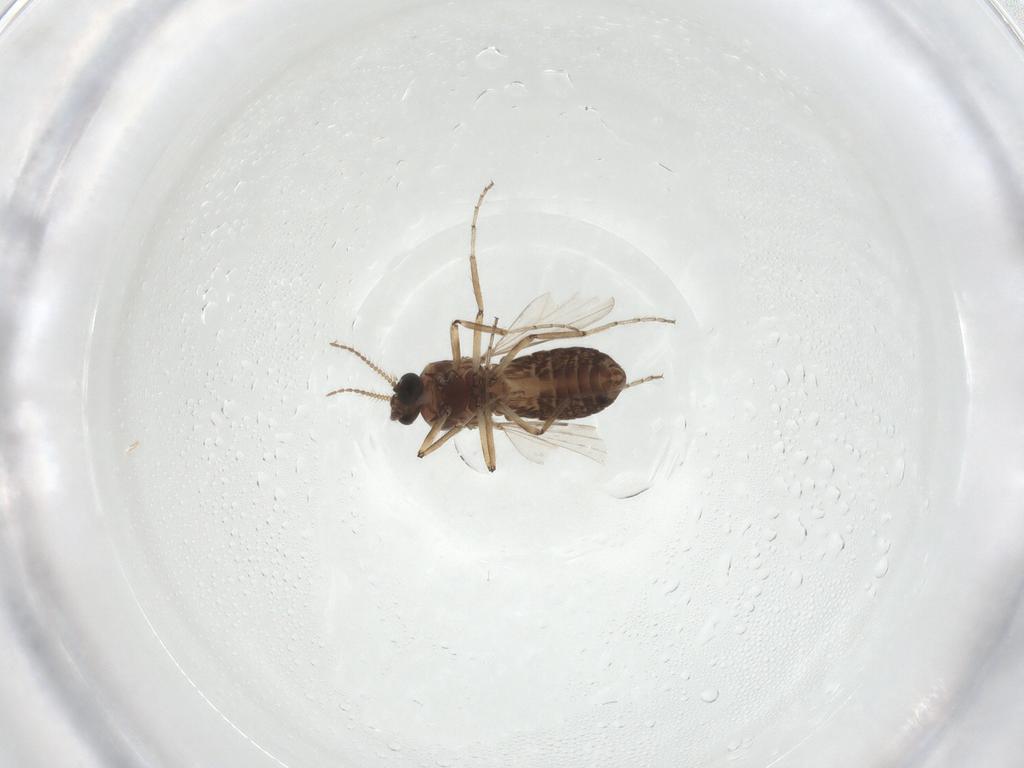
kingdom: Animalia
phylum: Arthropoda
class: Insecta
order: Diptera
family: Ceratopogonidae
